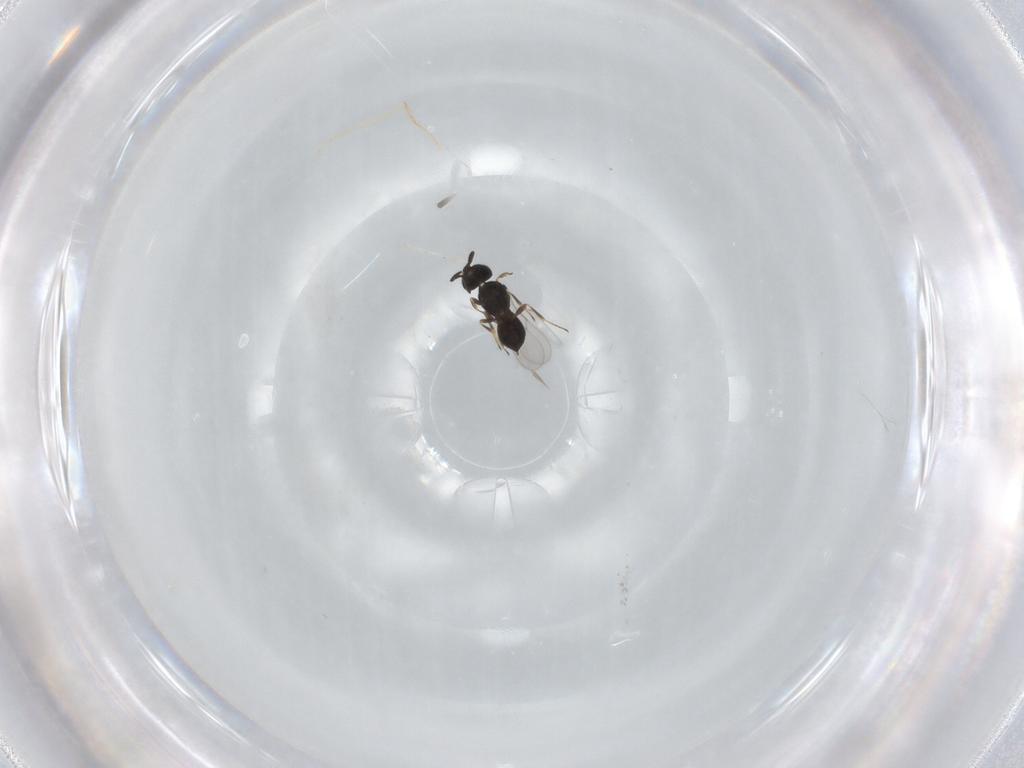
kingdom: Animalia
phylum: Arthropoda
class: Insecta
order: Hymenoptera
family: Scelionidae
